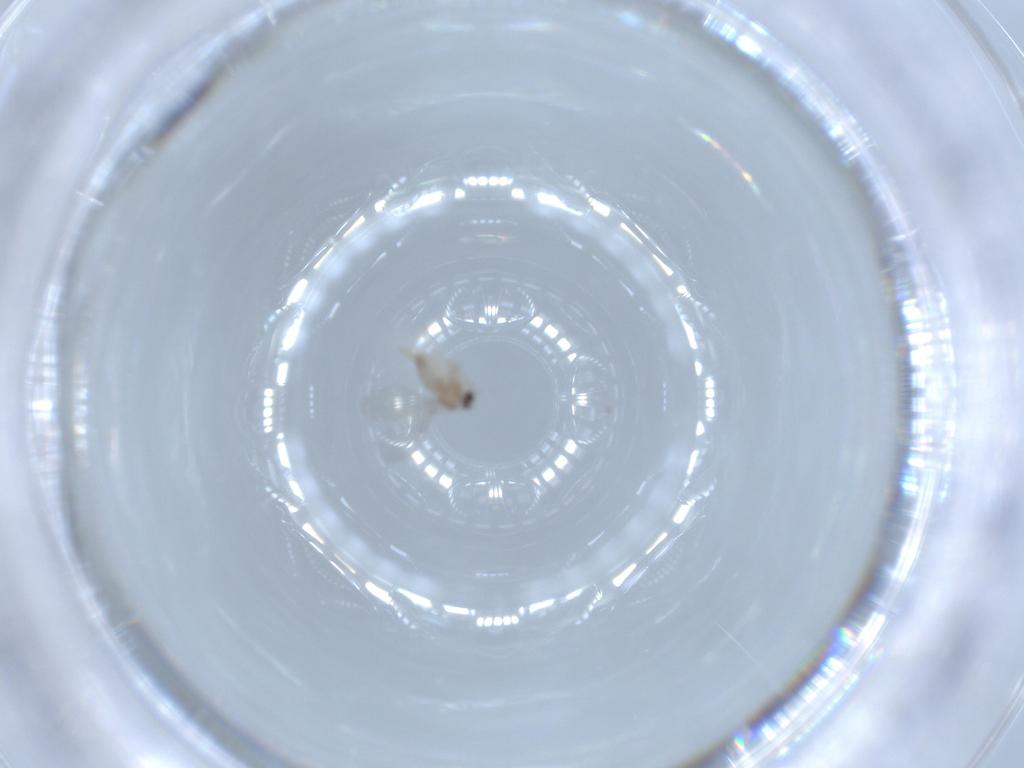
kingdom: Animalia
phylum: Arthropoda
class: Insecta
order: Diptera
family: Cecidomyiidae
